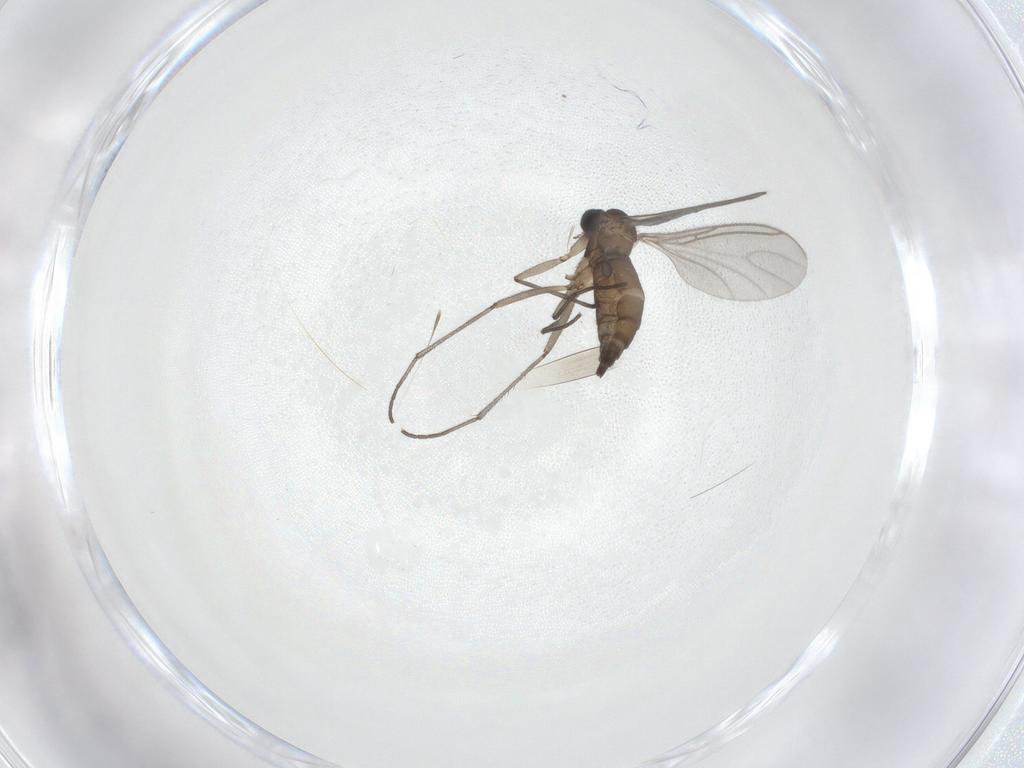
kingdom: Animalia
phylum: Arthropoda
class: Insecta
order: Diptera
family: Sciaridae
